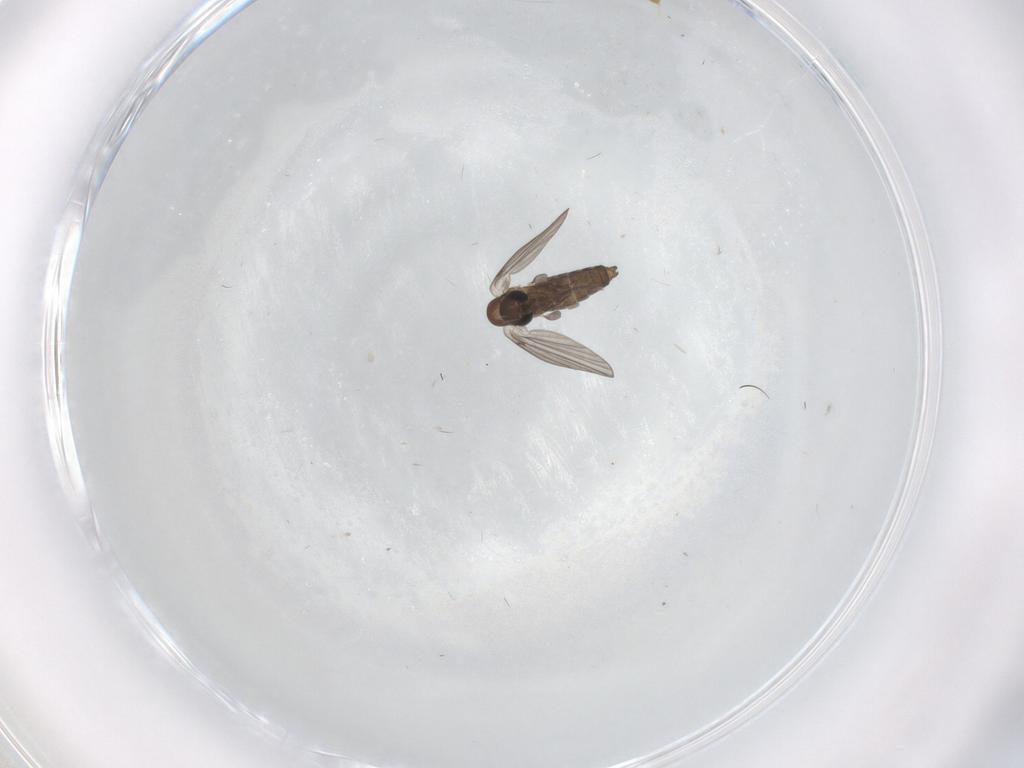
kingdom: Animalia
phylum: Arthropoda
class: Insecta
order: Diptera
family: Phoridae
